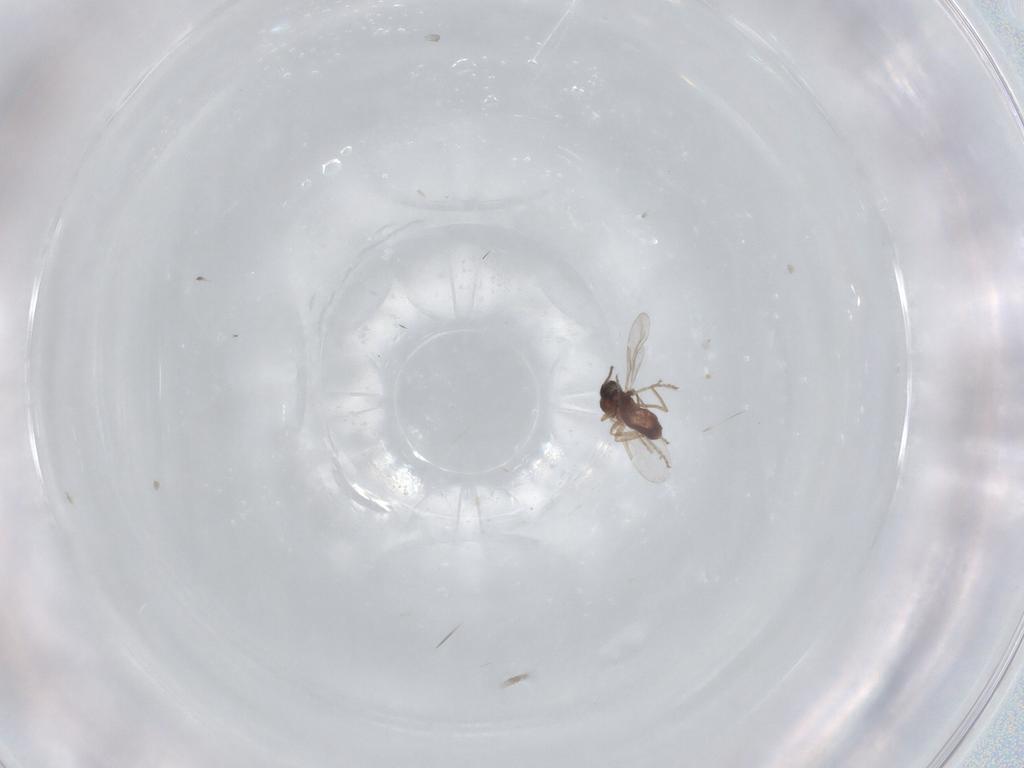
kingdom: Animalia
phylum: Arthropoda
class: Insecta
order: Diptera
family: Ceratopogonidae
